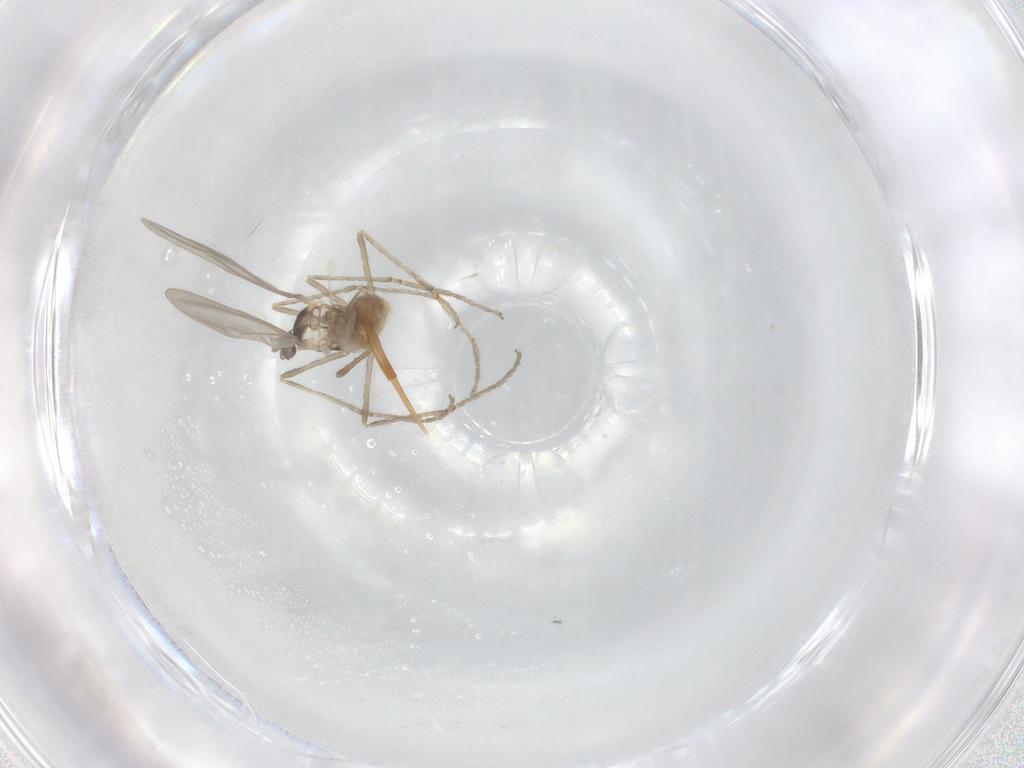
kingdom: Animalia
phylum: Arthropoda
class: Insecta
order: Diptera
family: Cecidomyiidae
